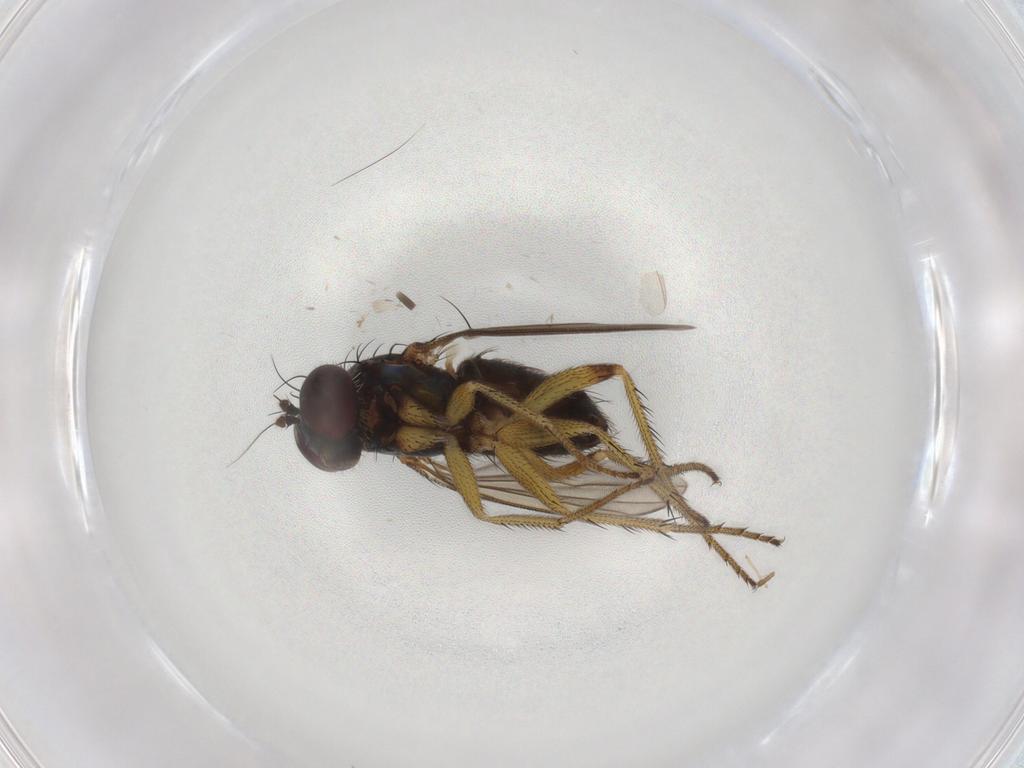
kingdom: Animalia
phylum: Arthropoda
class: Insecta
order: Diptera
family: Dolichopodidae
